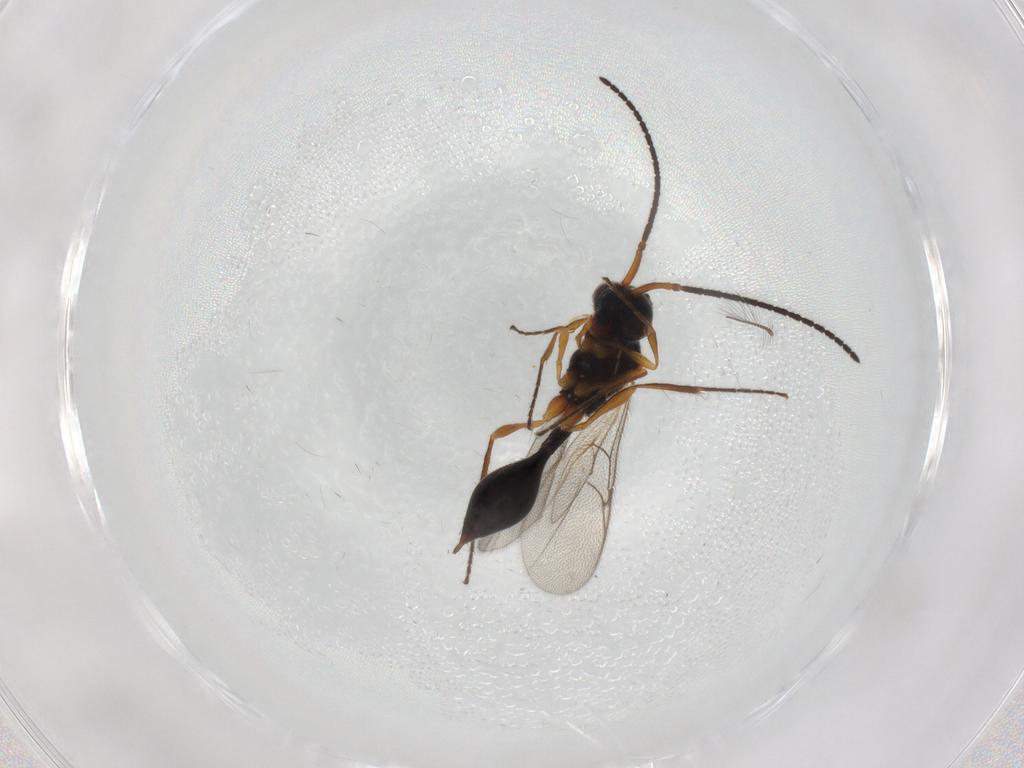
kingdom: Animalia
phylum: Arthropoda
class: Insecta
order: Hymenoptera
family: Diapriidae
